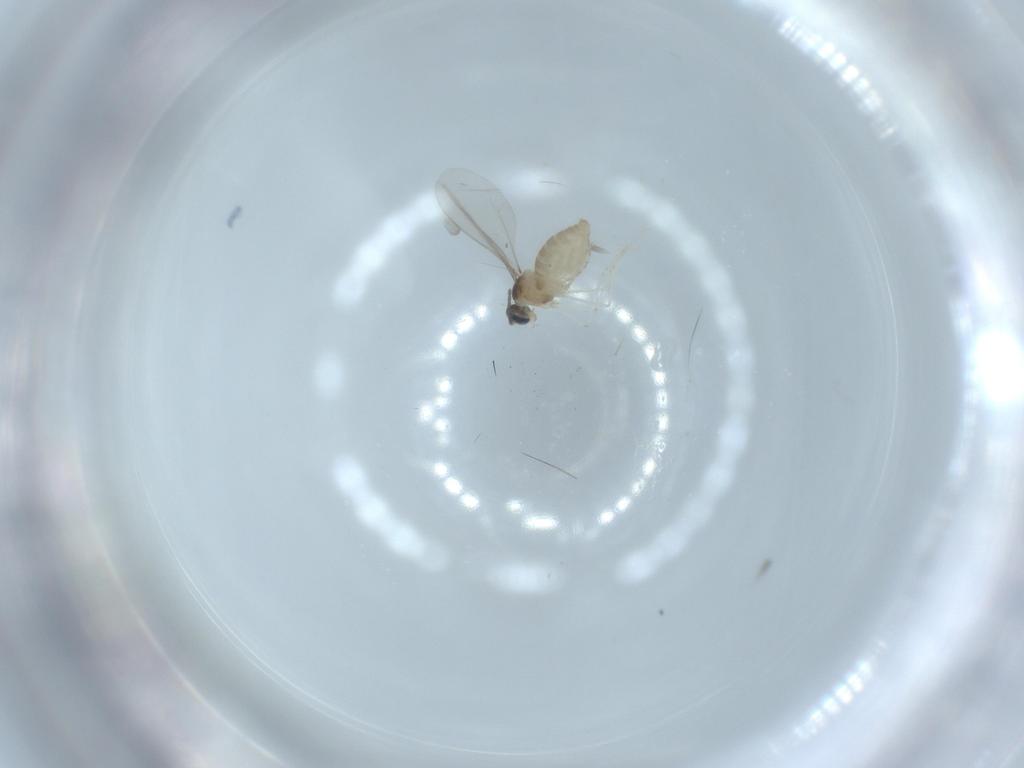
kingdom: Animalia
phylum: Arthropoda
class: Insecta
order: Diptera
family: Cecidomyiidae
